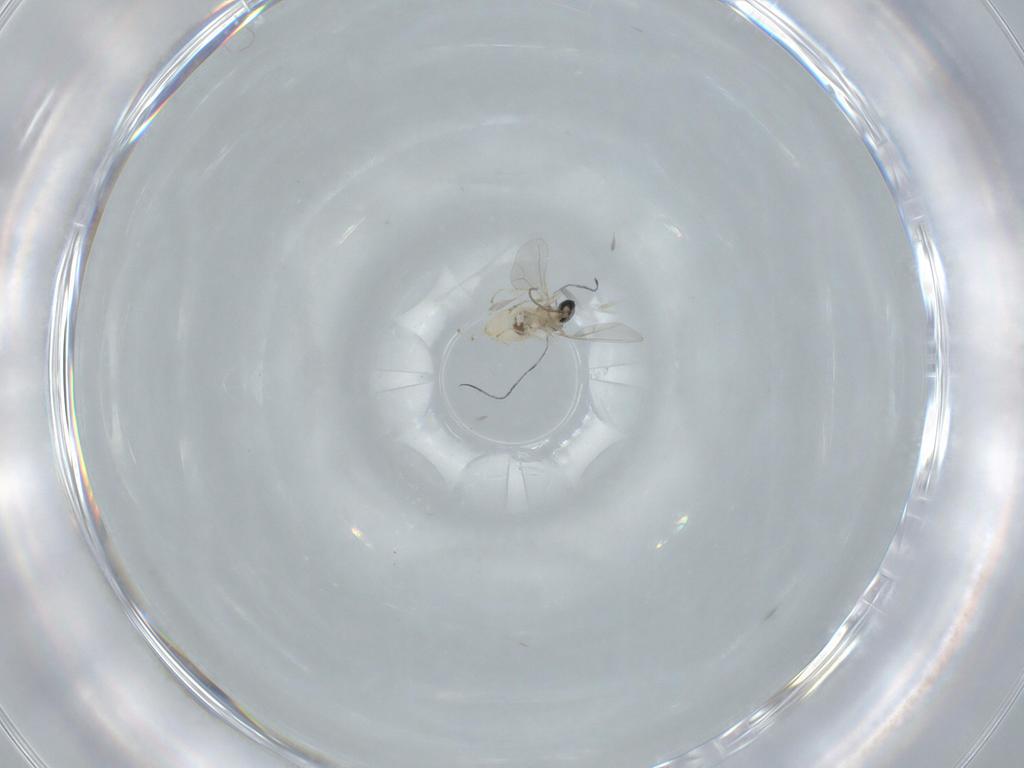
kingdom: Animalia
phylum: Arthropoda
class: Insecta
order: Diptera
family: Cecidomyiidae
